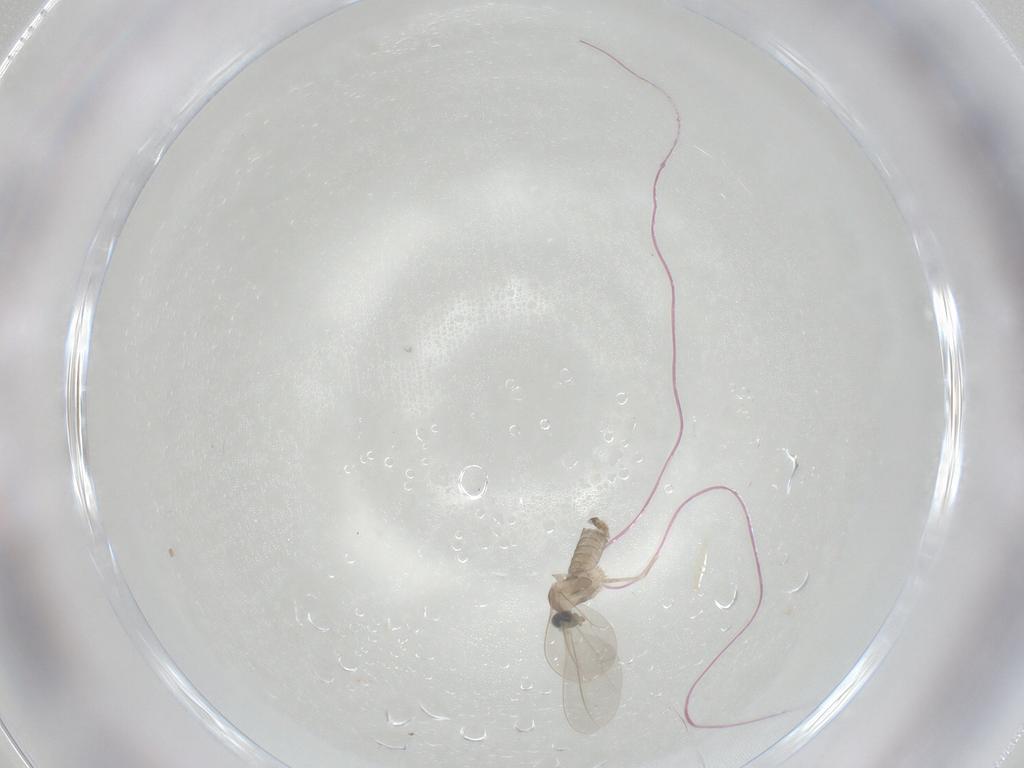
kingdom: Animalia
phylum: Arthropoda
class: Insecta
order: Diptera
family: Cecidomyiidae
